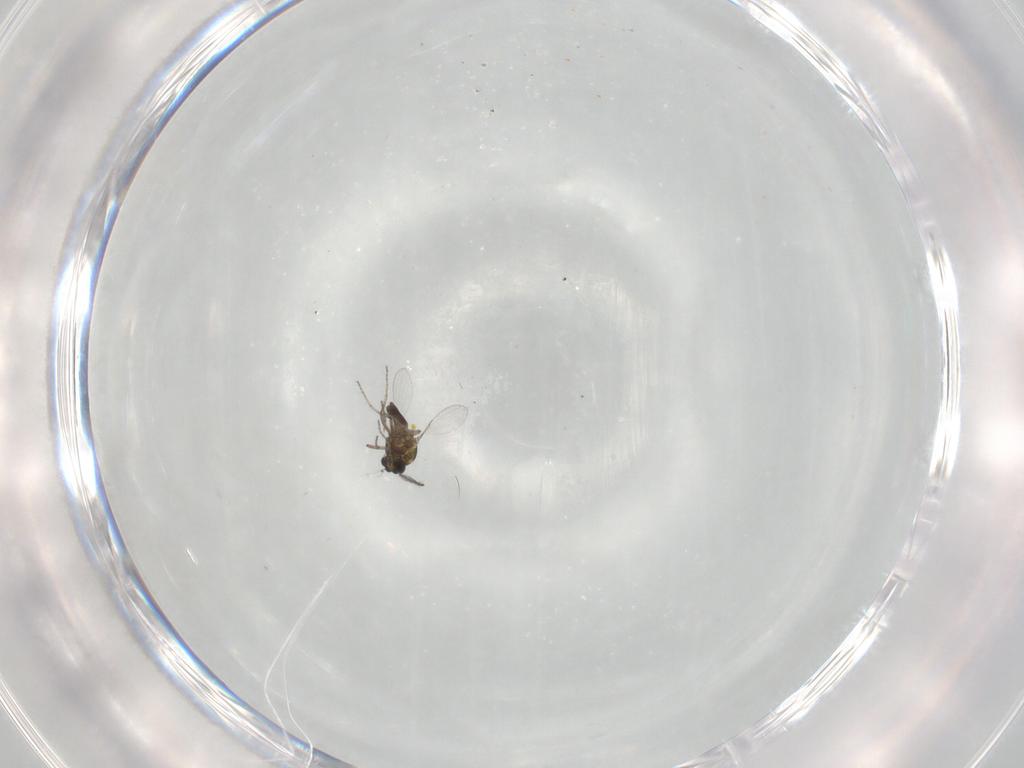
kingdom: Animalia
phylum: Arthropoda
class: Insecta
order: Diptera
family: Ceratopogonidae
